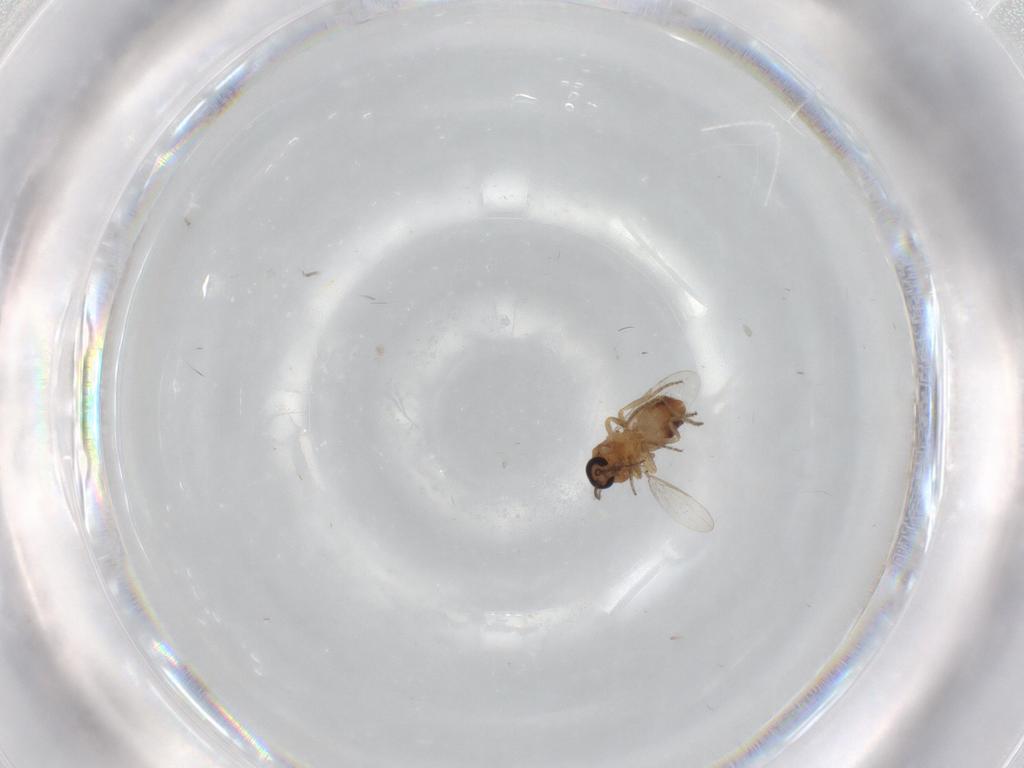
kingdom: Animalia
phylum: Arthropoda
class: Insecta
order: Diptera
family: Ceratopogonidae
